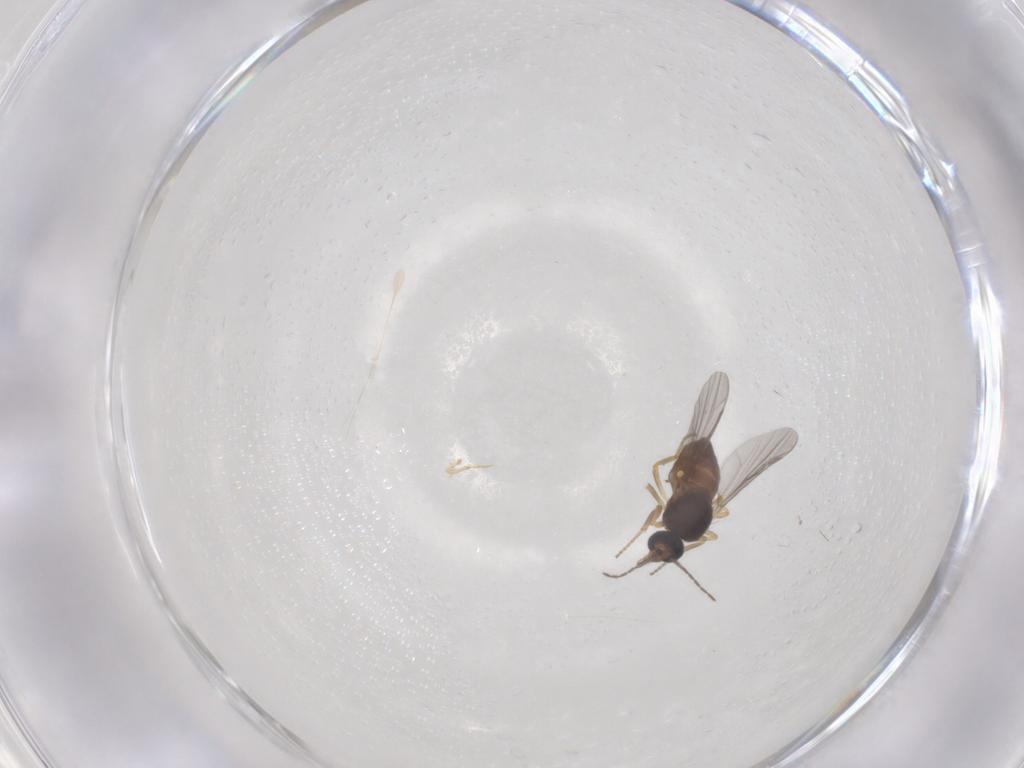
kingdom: Animalia
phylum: Arthropoda
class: Insecta
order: Diptera
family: Ceratopogonidae
